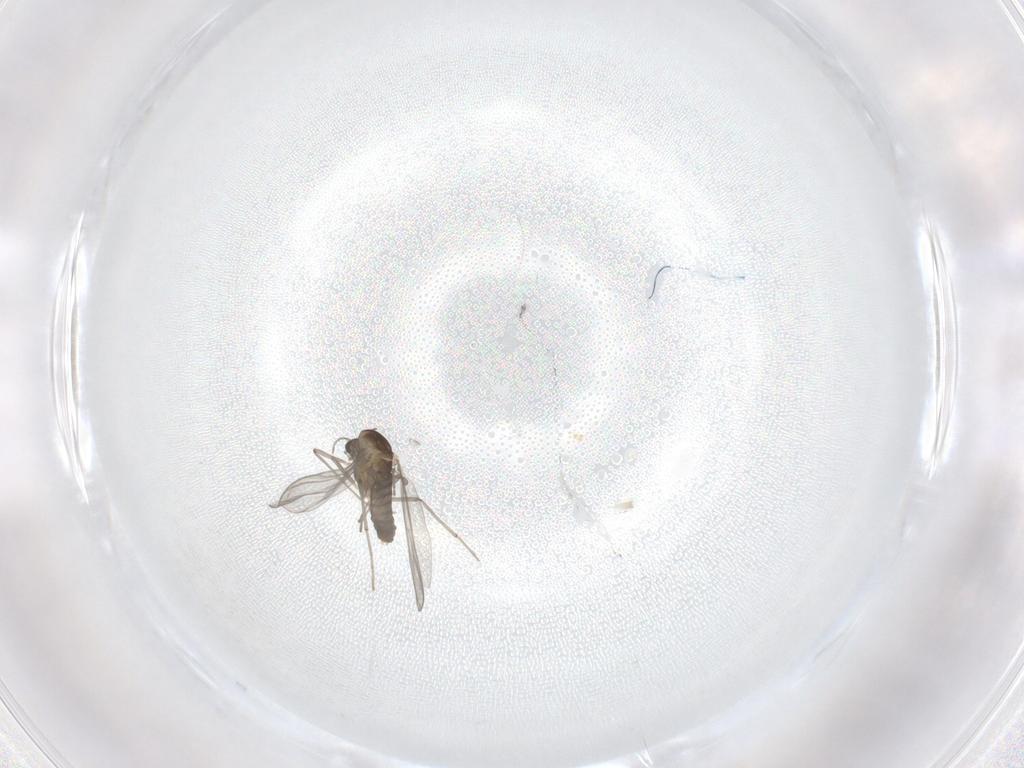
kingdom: Animalia
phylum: Arthropoda
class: Insecta
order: Diptera
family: Chironomidae
